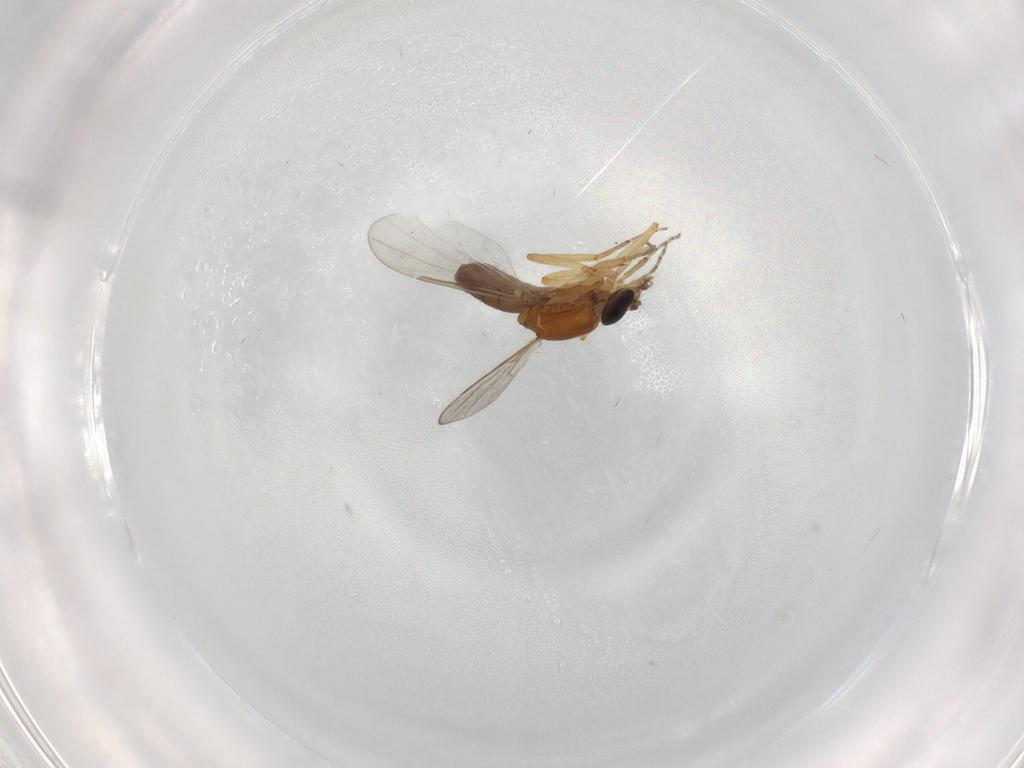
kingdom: Animalia
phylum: Arthropoda
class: Insecta
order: Diptera
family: Ceratopogonidae
